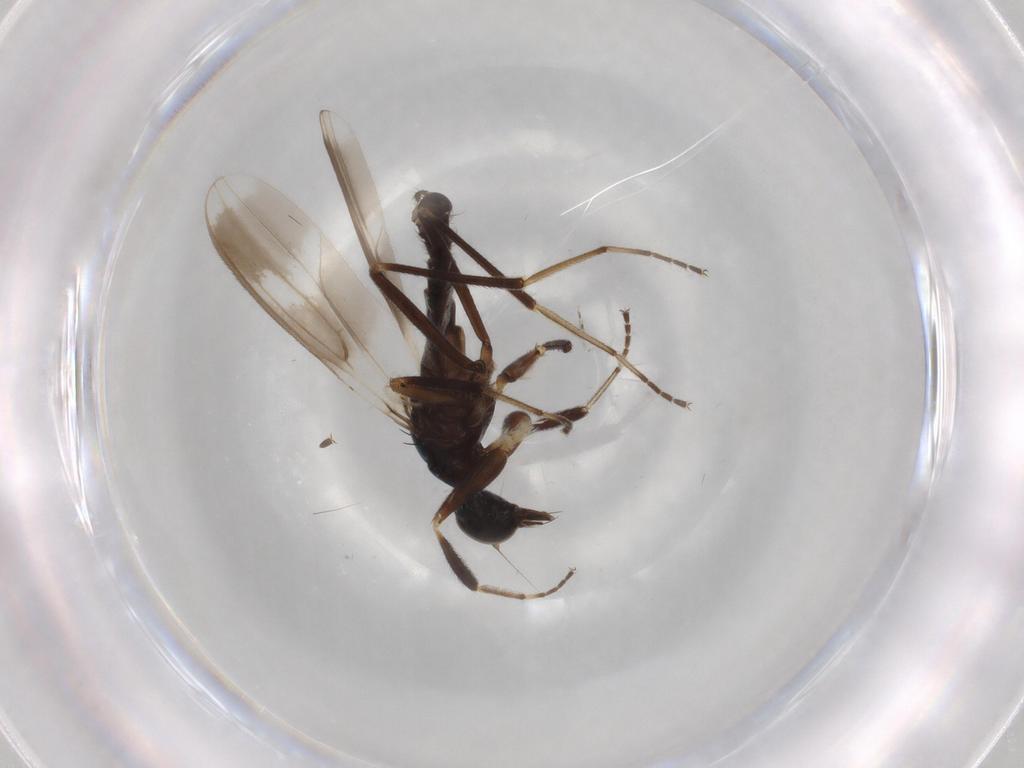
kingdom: Animalia
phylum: Arthropoda
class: Insecta
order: Diptera
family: Hybotidae
